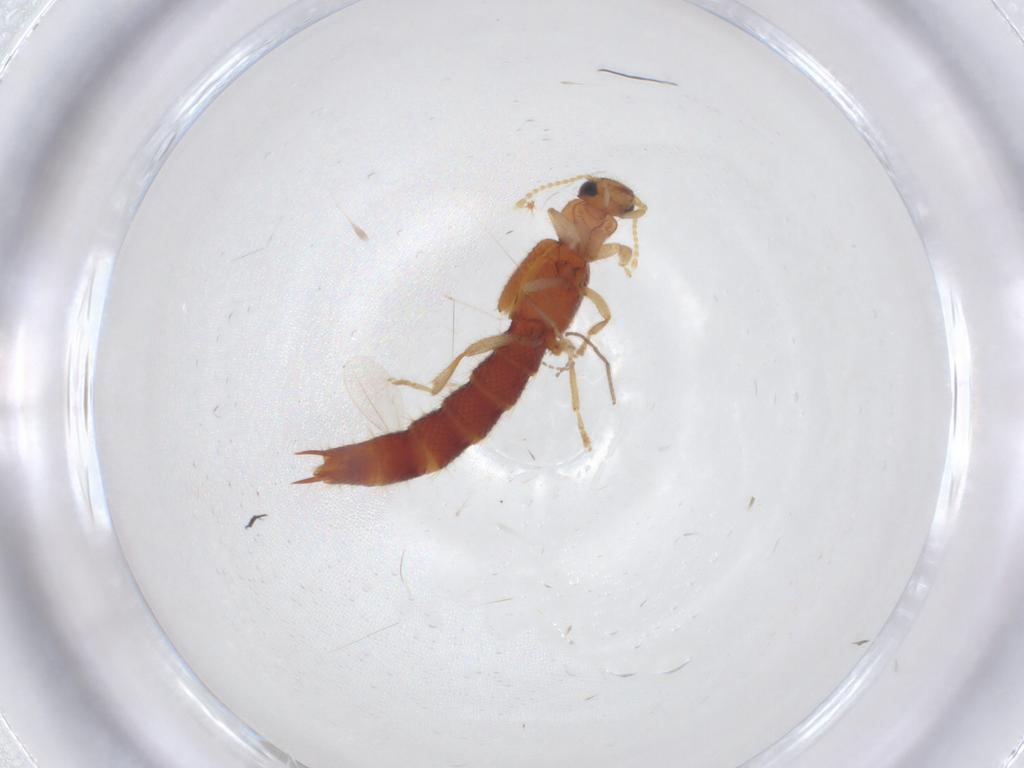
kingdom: Animalia
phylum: Arthropoda
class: Insecta
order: Coleoptera
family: Staphylinidae
